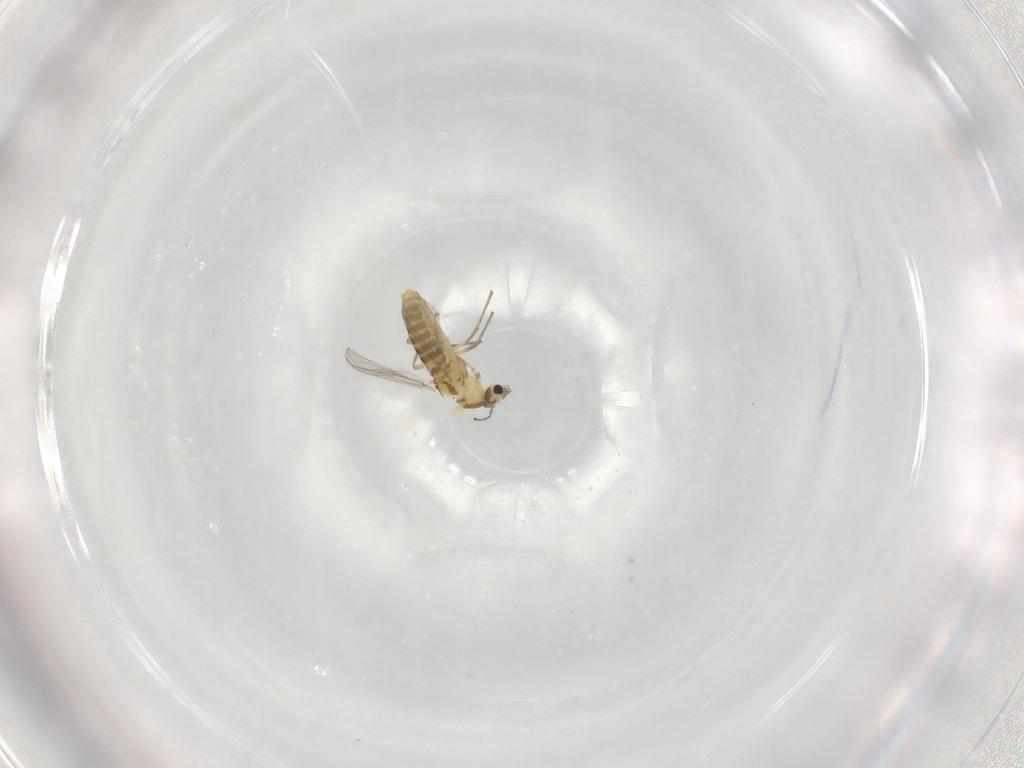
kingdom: Animalia
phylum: Arthropoda
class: Insecta
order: Diptera
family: Chironomidae
